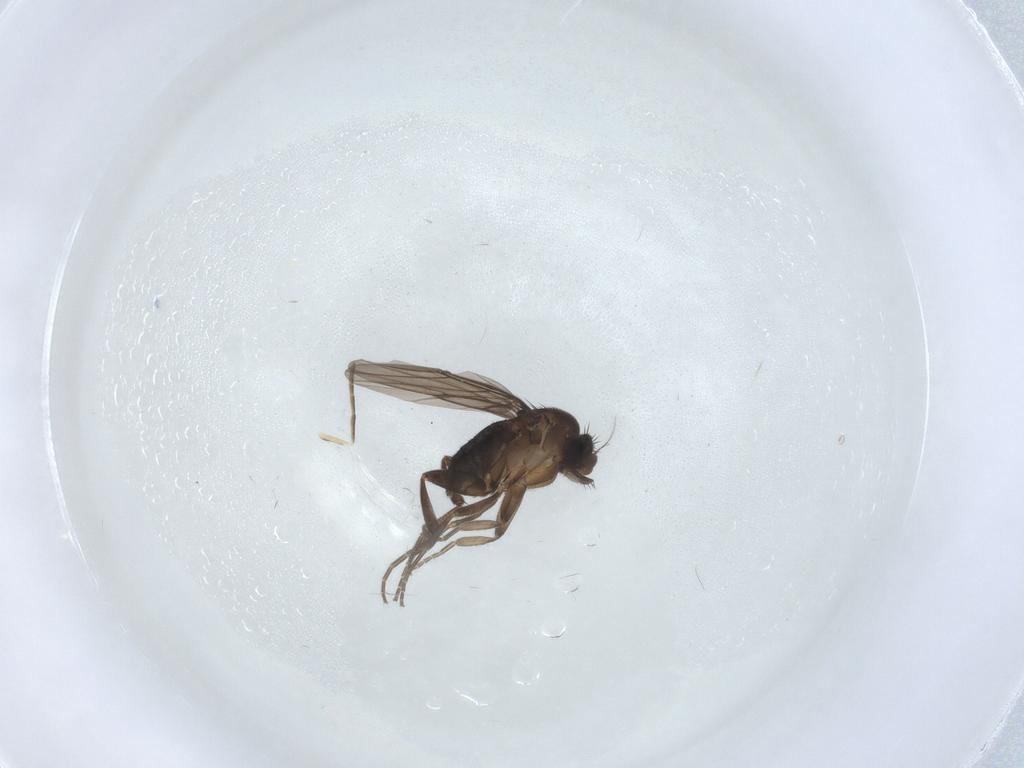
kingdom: Animalia
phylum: Arthropoda
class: Insecta
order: Diptera
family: Phoridae
